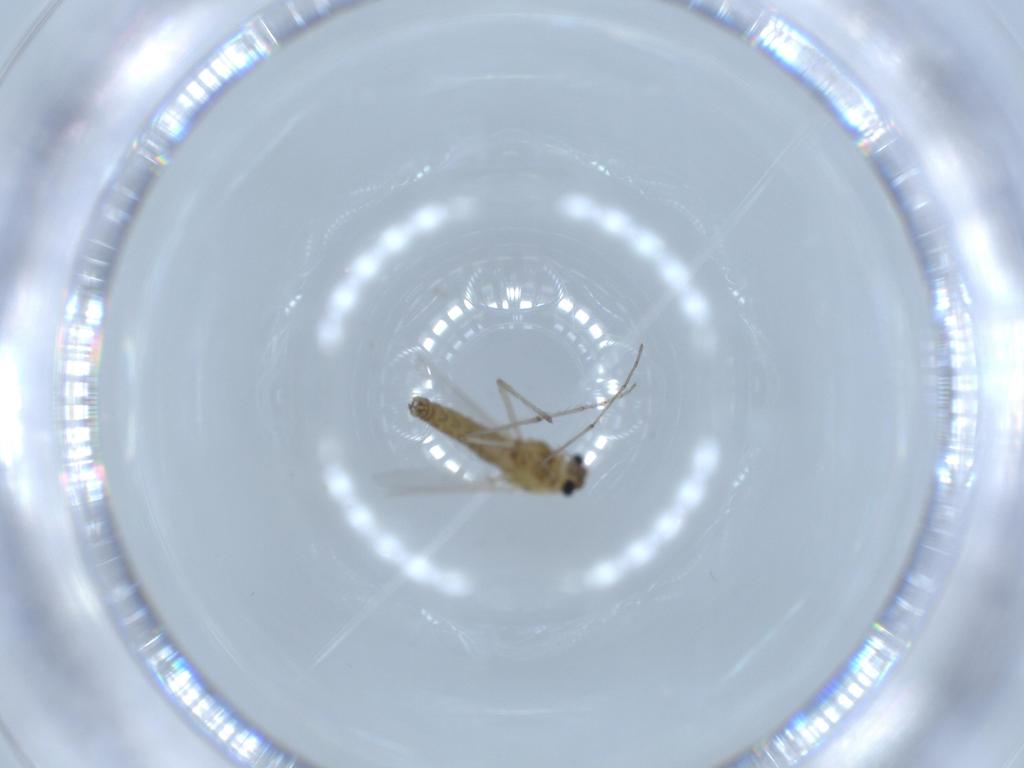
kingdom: Animalia
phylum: Arthropoda
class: Insecta
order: Diptera
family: Chironomidae
